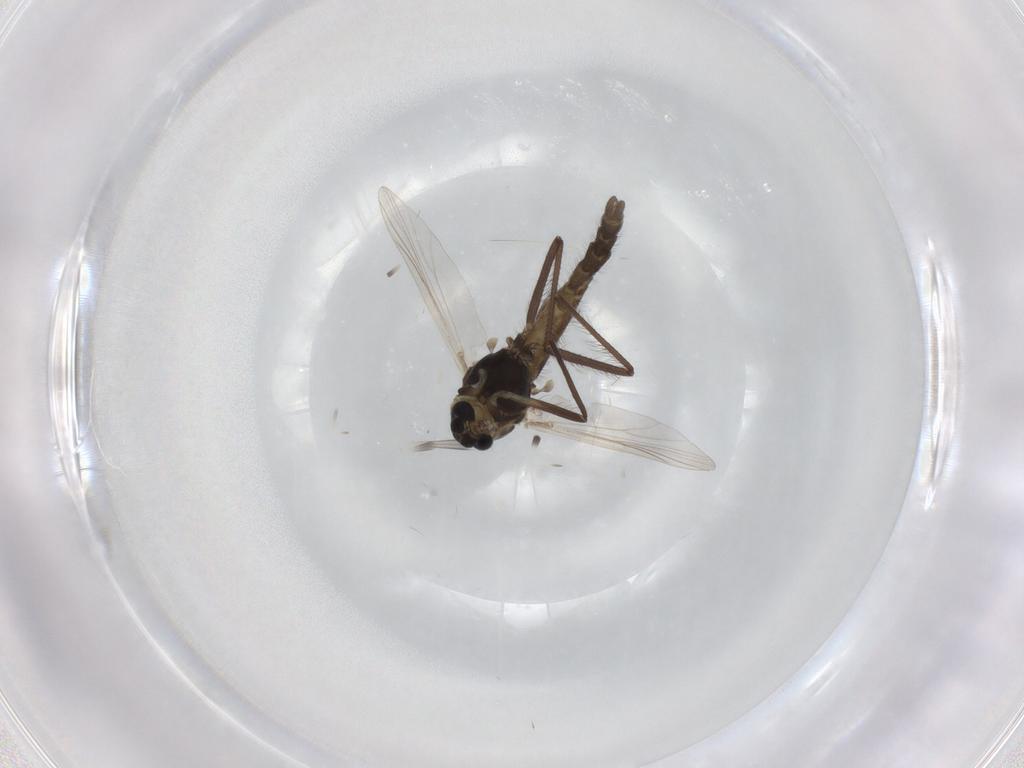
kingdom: Animalia
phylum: Arthropoda
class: Insecta
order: Diptera
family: Chironomidae
